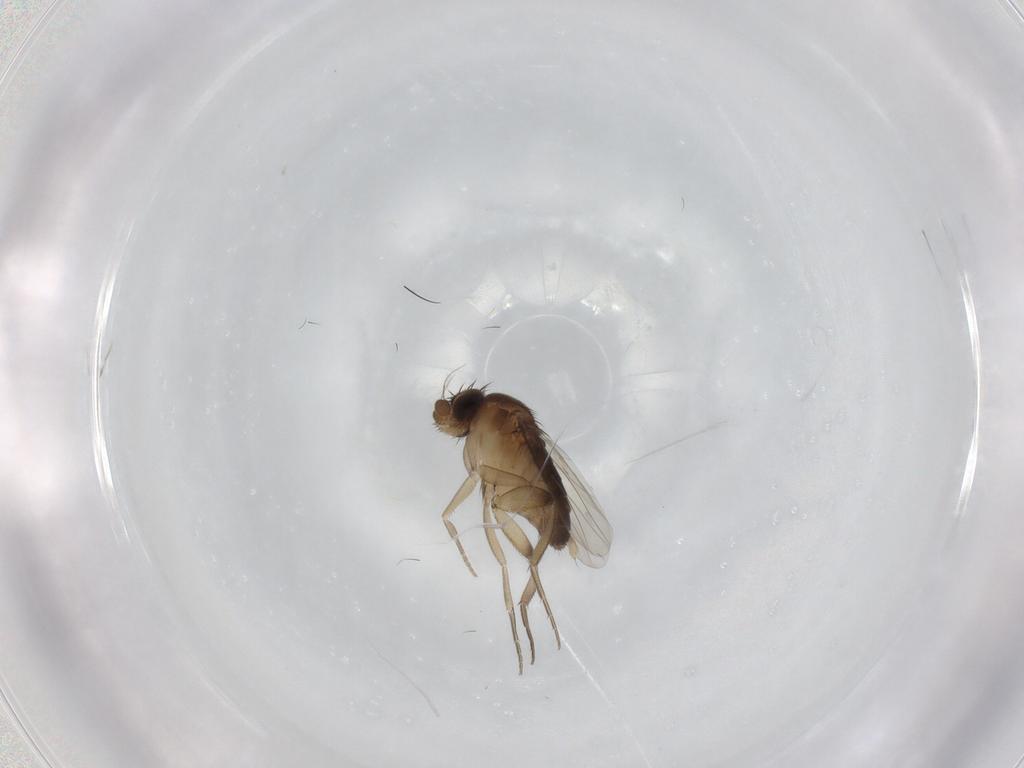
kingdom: Animalia
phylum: Arthropoda
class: Insecta
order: Diptera
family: Phoridae
